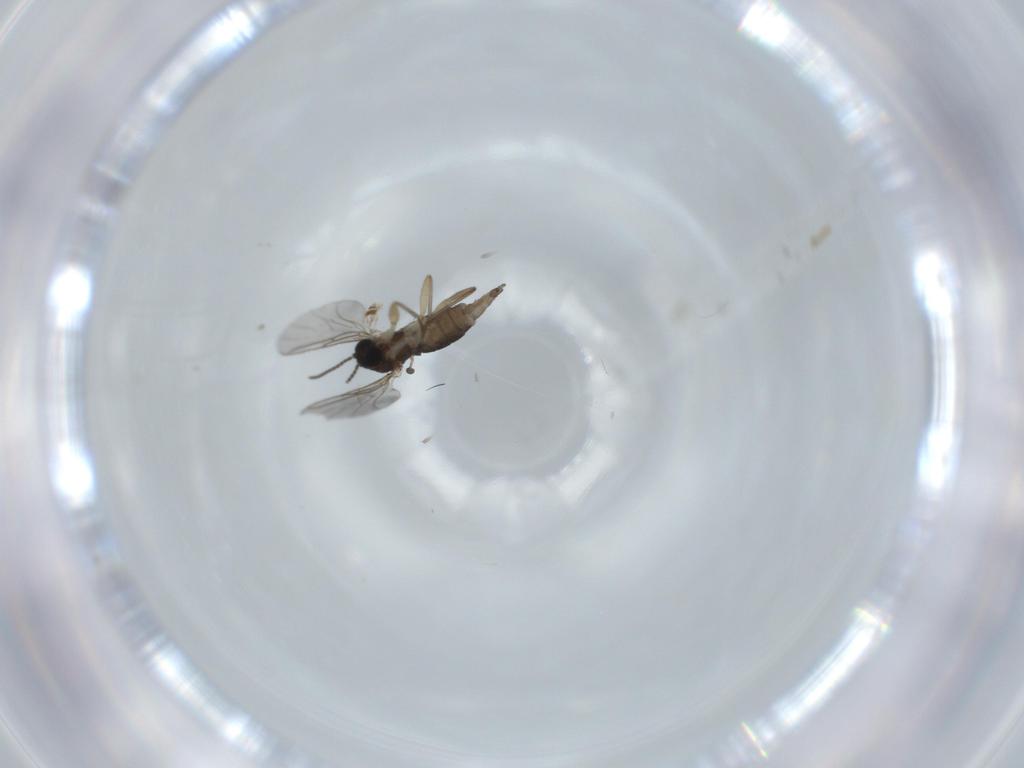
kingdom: Animalia
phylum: Arthropoda
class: Insecta
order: Diptera
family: Sciaridae
